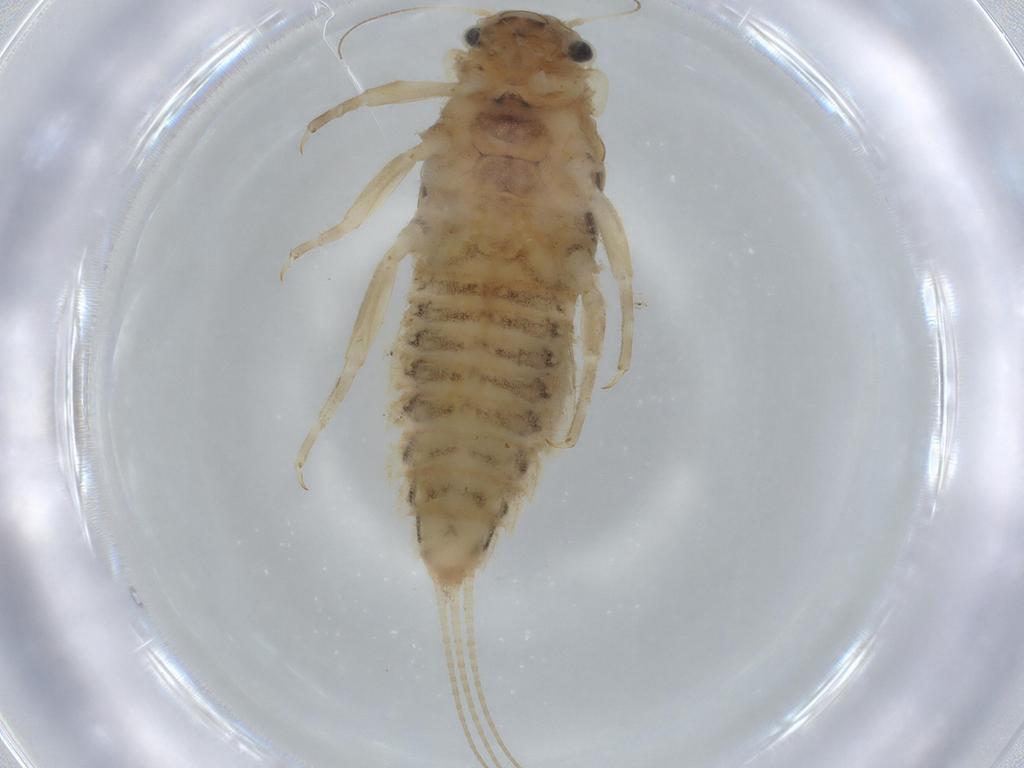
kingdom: Animalia
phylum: Arthropoda
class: Insecta
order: Ephemeroptera
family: Caenidae
